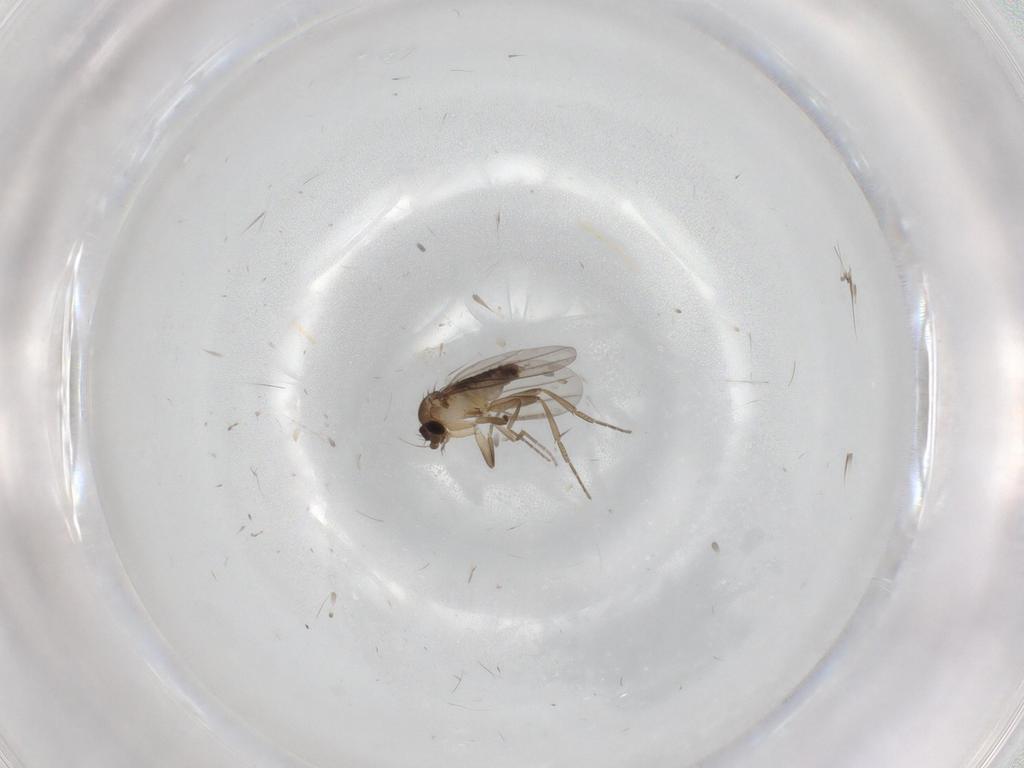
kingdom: Animalia
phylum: Arthropoda
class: Insecta
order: Diptera
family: Phoridae
